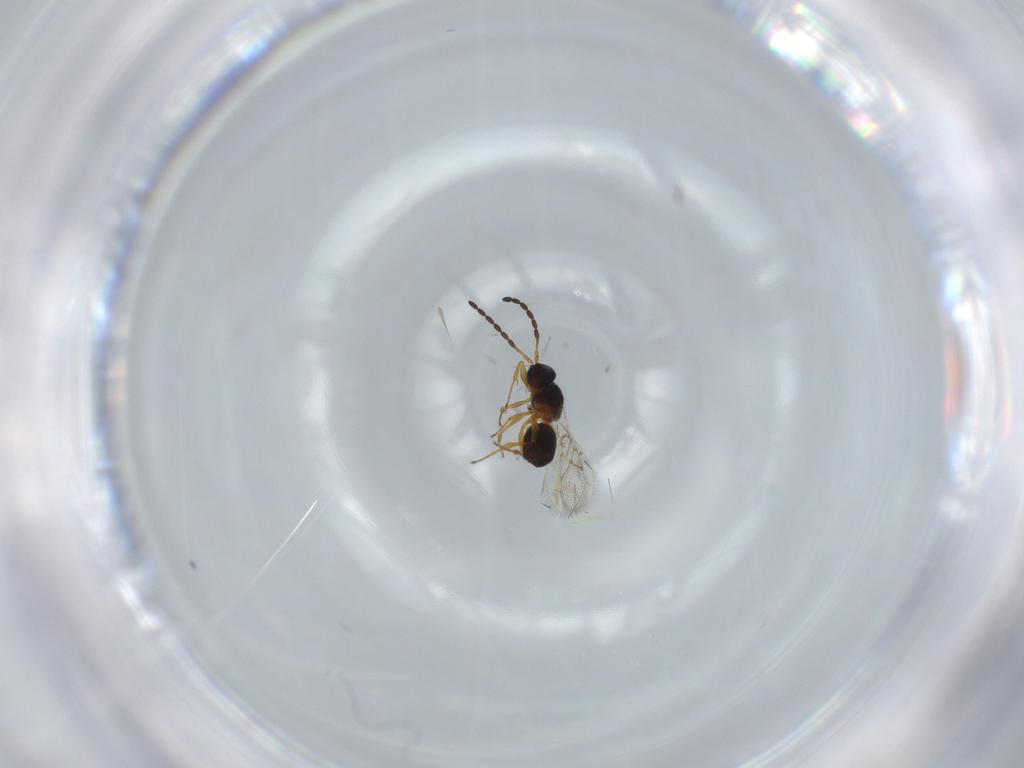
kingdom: Animalia
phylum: Arthropoda
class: Insecta
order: Hymenoptera
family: Figitidae
